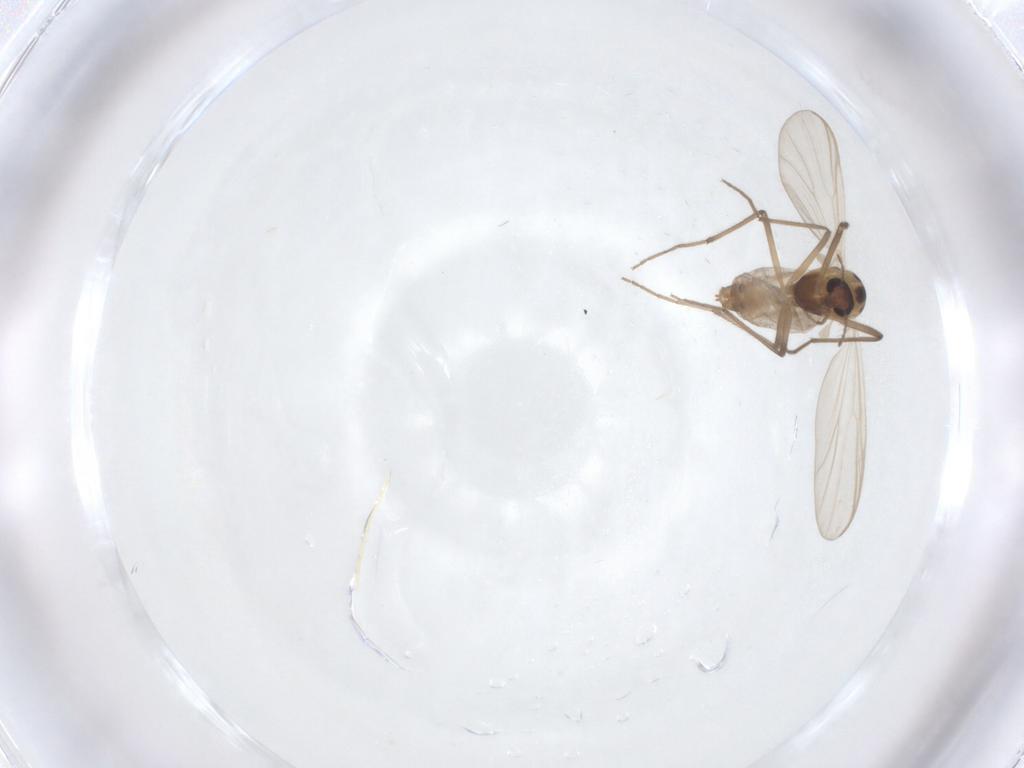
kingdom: Animalia
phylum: Arthropoda
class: Insecta
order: Diptera
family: Chironomidae
